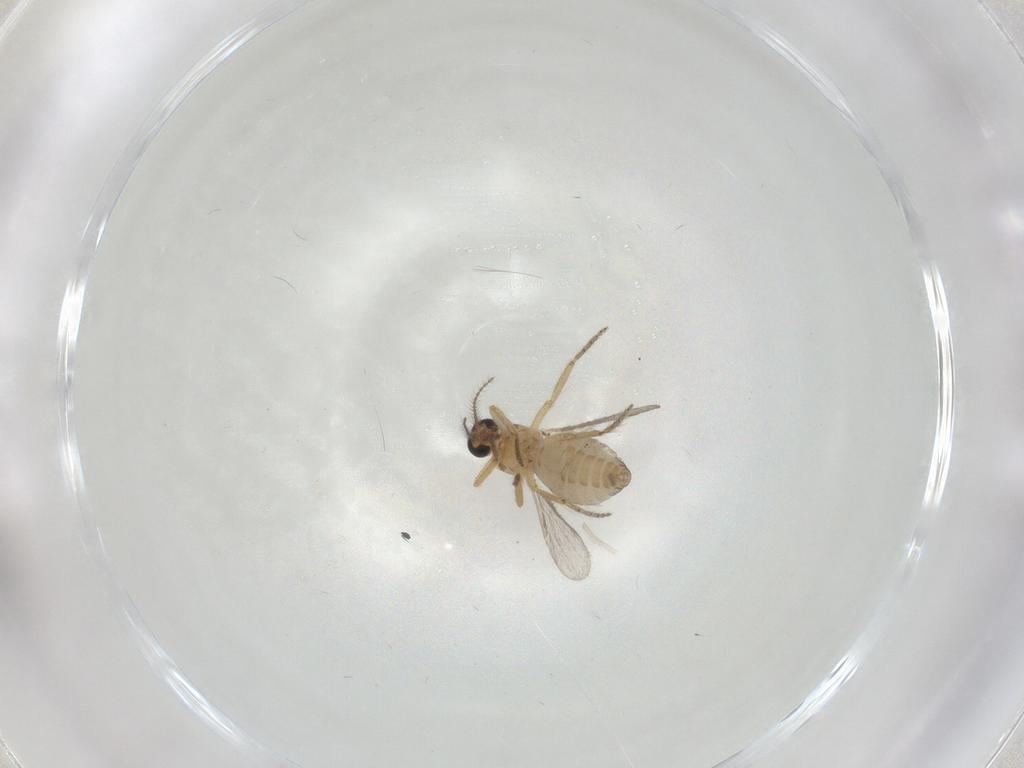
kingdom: Animalia
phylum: Arthropoda
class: Insecta
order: Diptera
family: Ceratopogonidae
